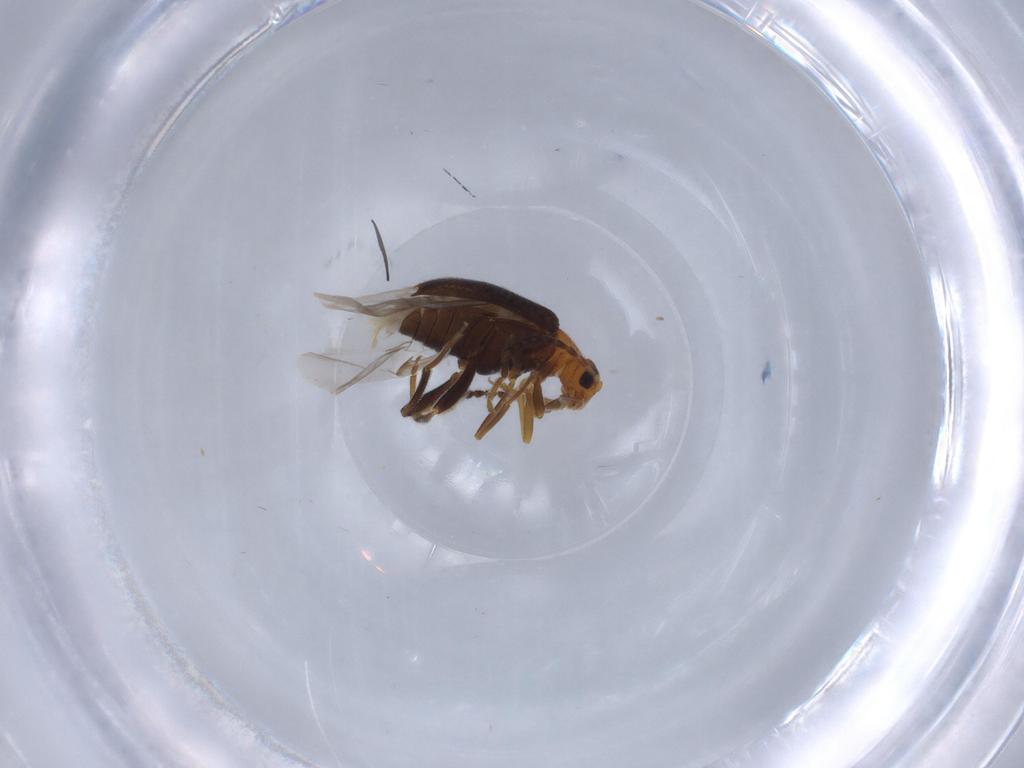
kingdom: Animalia
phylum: Arthropoda
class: Insecta
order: Coleoptera
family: Aderidae
